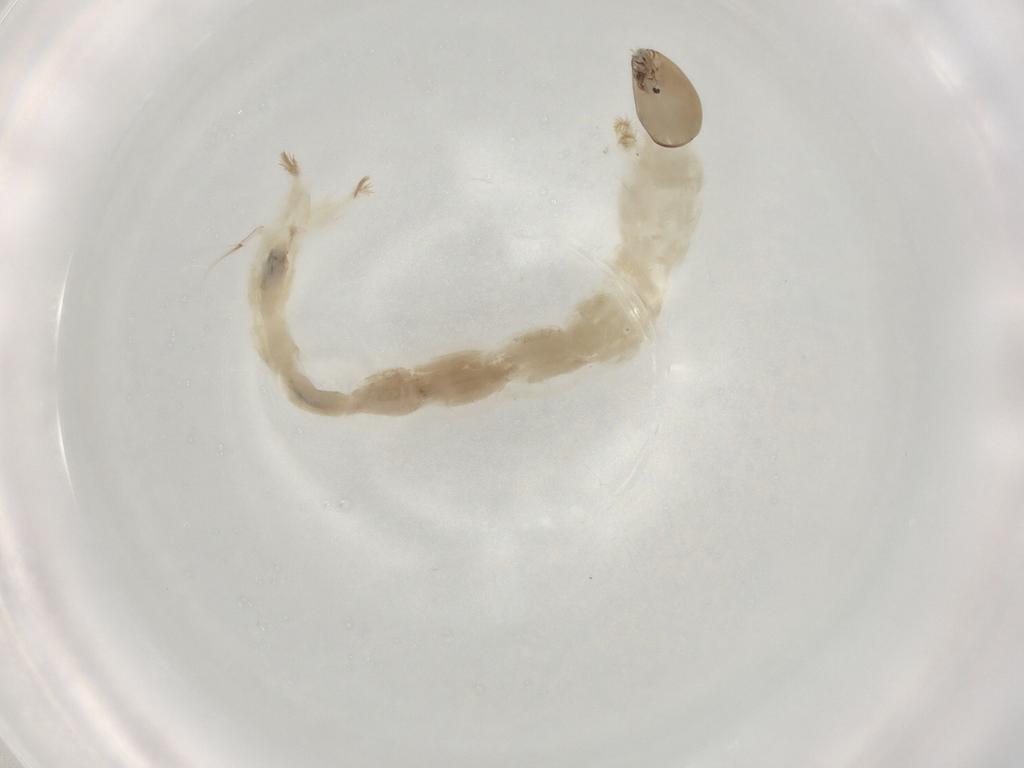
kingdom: Animalia
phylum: Arthropoda
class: Insecta
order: Diptera
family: Chironomidae
